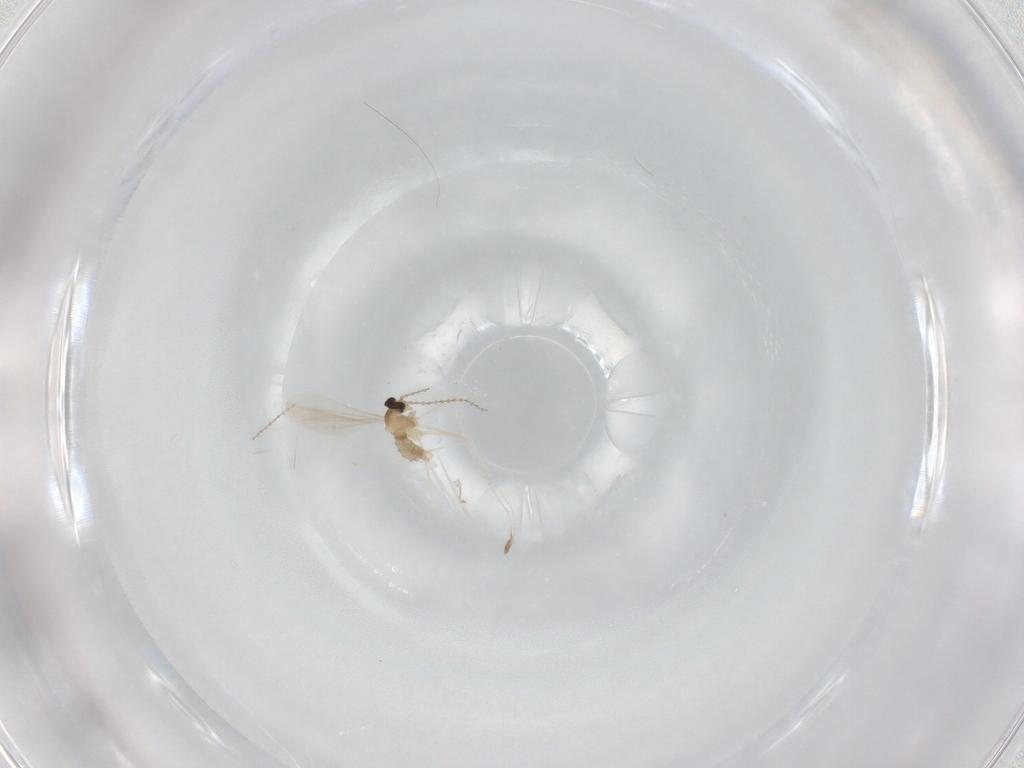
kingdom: Animalia
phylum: Arthropoda
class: Insecta
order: Diptera
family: Cecidomyiidae
